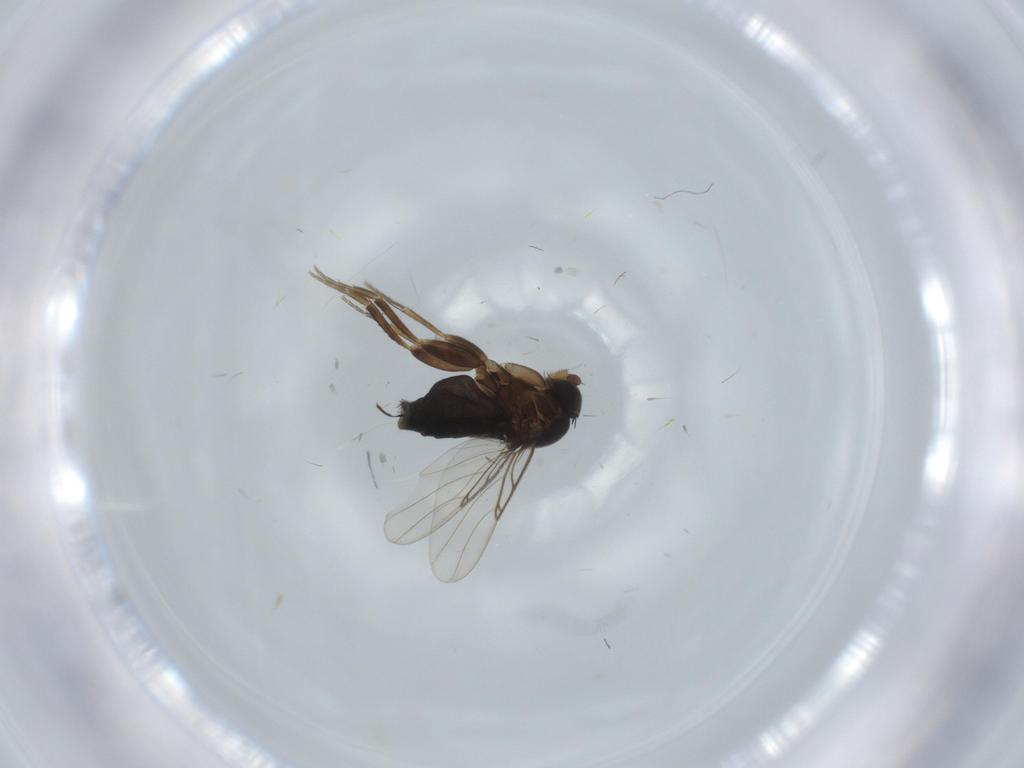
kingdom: Animalia
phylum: Arthropoda
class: Insecta
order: Diptera
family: Phoridae
